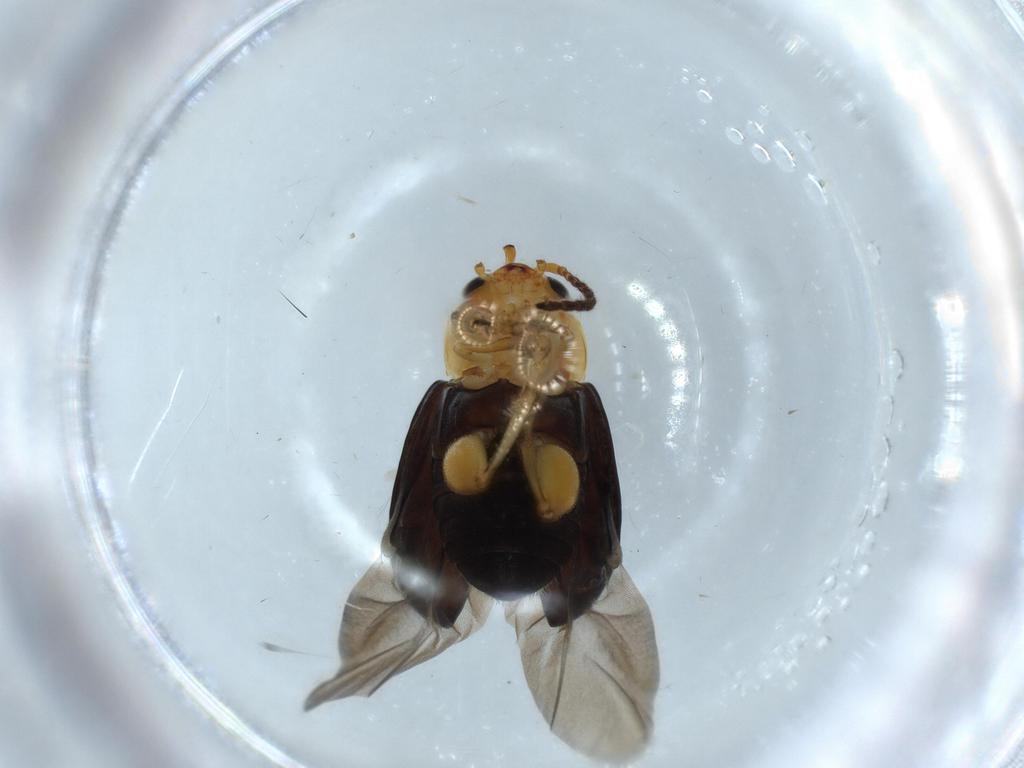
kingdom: Animalia
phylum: Arthropoda
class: Insecta
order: Coleoptera
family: Chrysomelidae
